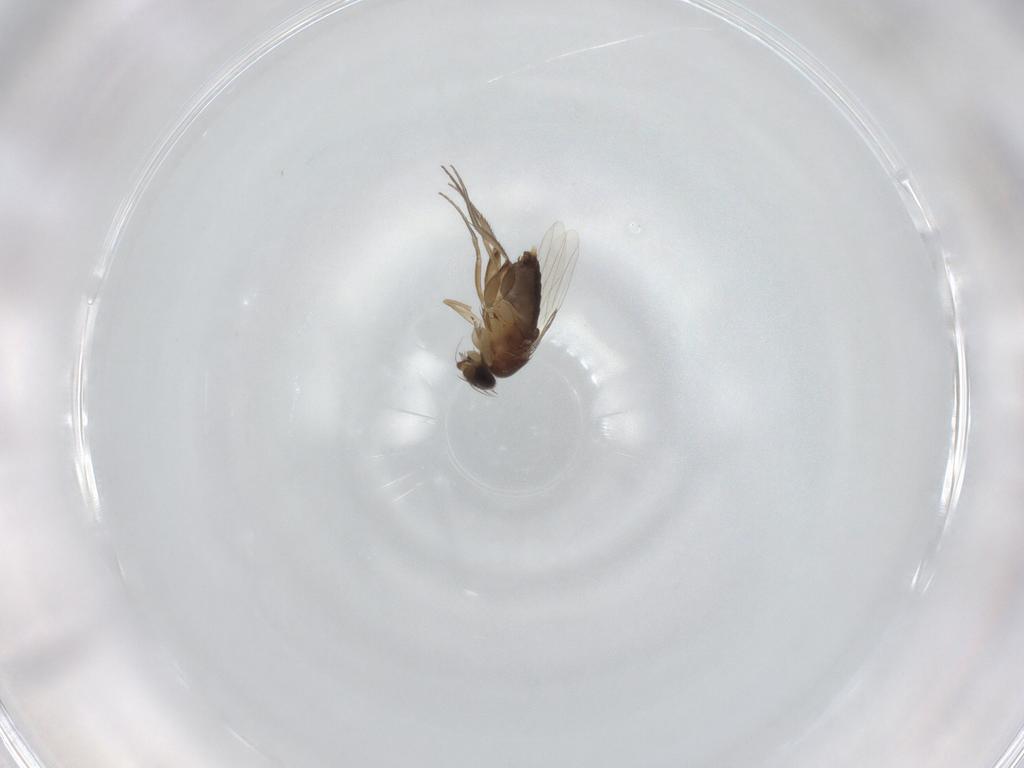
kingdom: Animalia
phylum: Arthropoda
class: Insecta
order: Diptera
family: Phoridae
